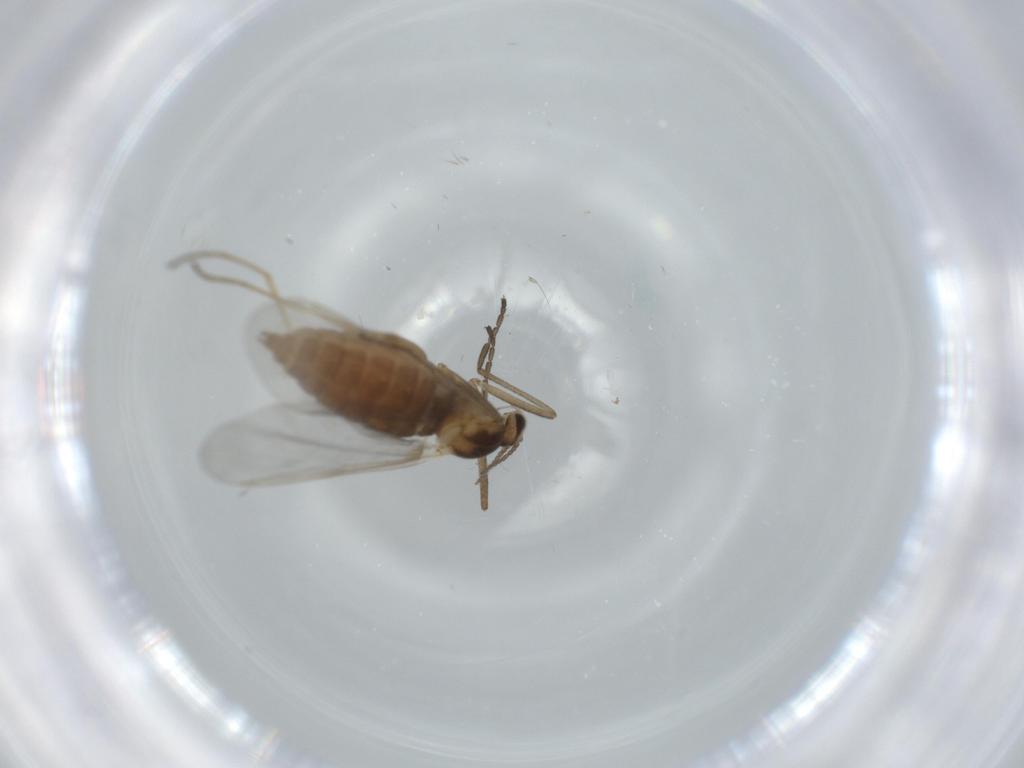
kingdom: Animalia
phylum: Arthropoda
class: Insecta
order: Diptera
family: Cecidomyiidae
